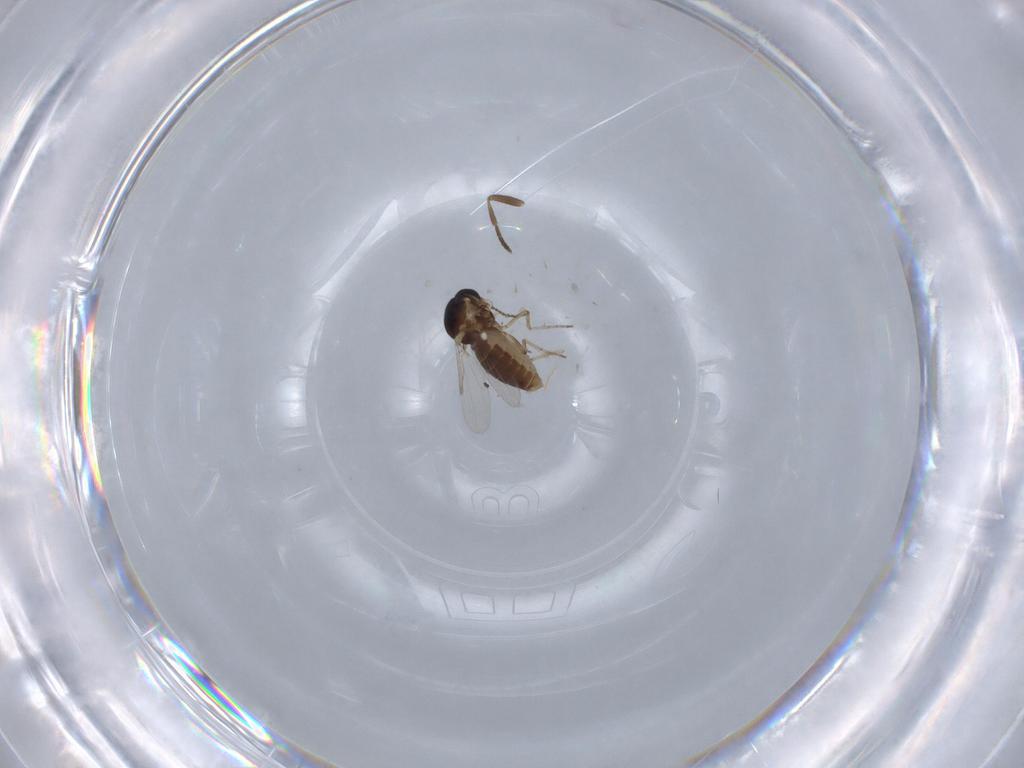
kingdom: Animalia
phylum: Arthropoda
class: Insecta
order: Diptera
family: Ceratopogonidae
